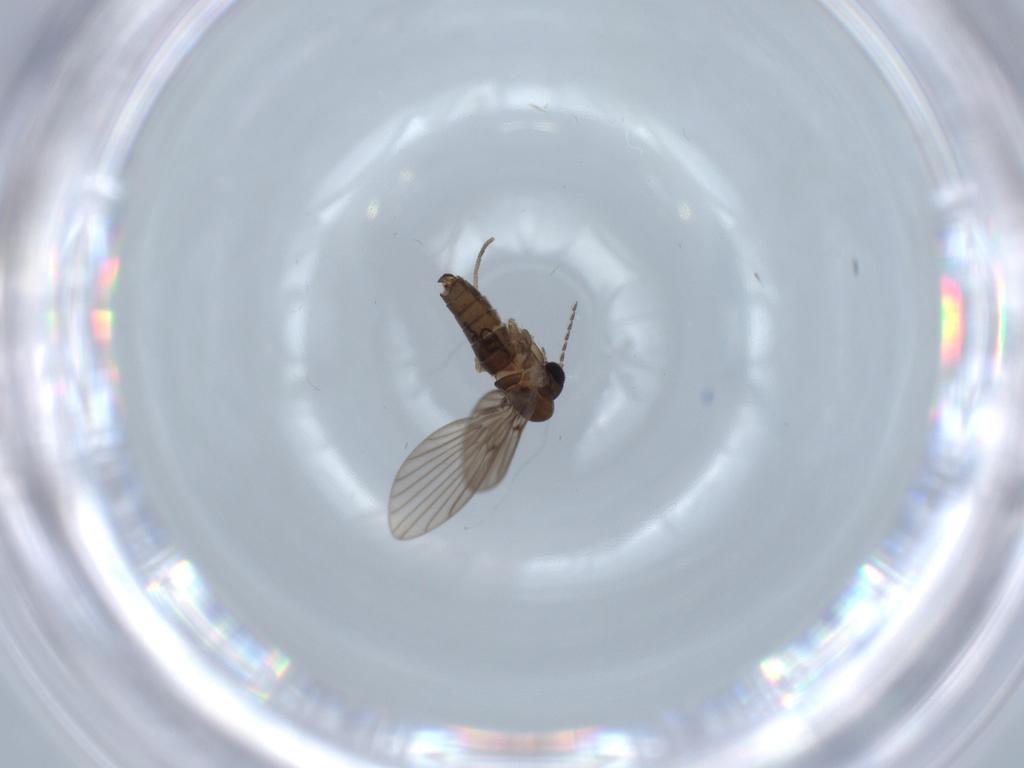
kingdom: Animalia
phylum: Arthropoda
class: Insecta
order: Diptera
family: Psychodidae
